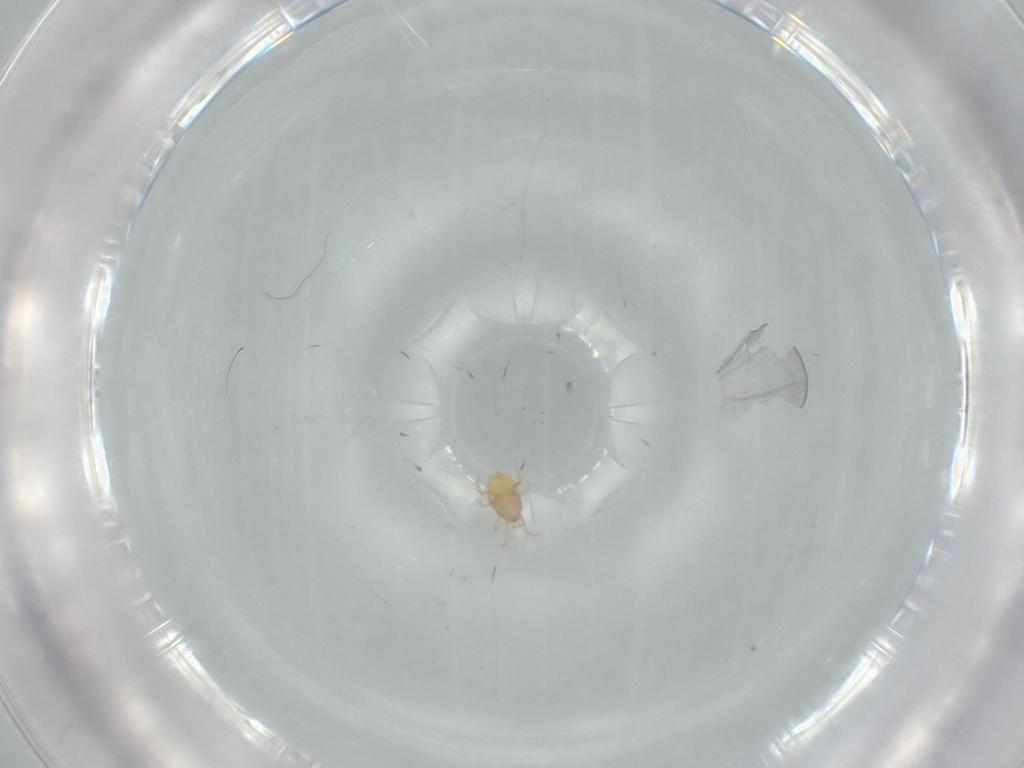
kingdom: Animalia
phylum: Arthropoda
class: Arachnida
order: Mesostigmata
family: Melicharidae
